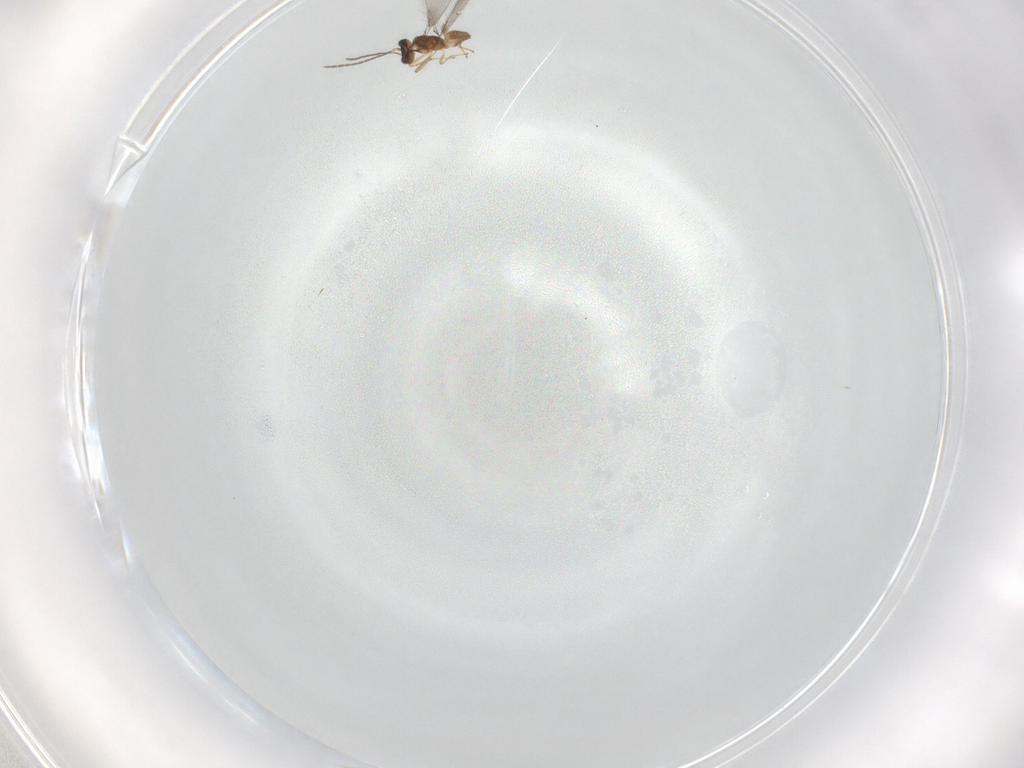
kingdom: Animalia
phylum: Arthropoda
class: Insecta
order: Hymenoptera
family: Mymaridae
